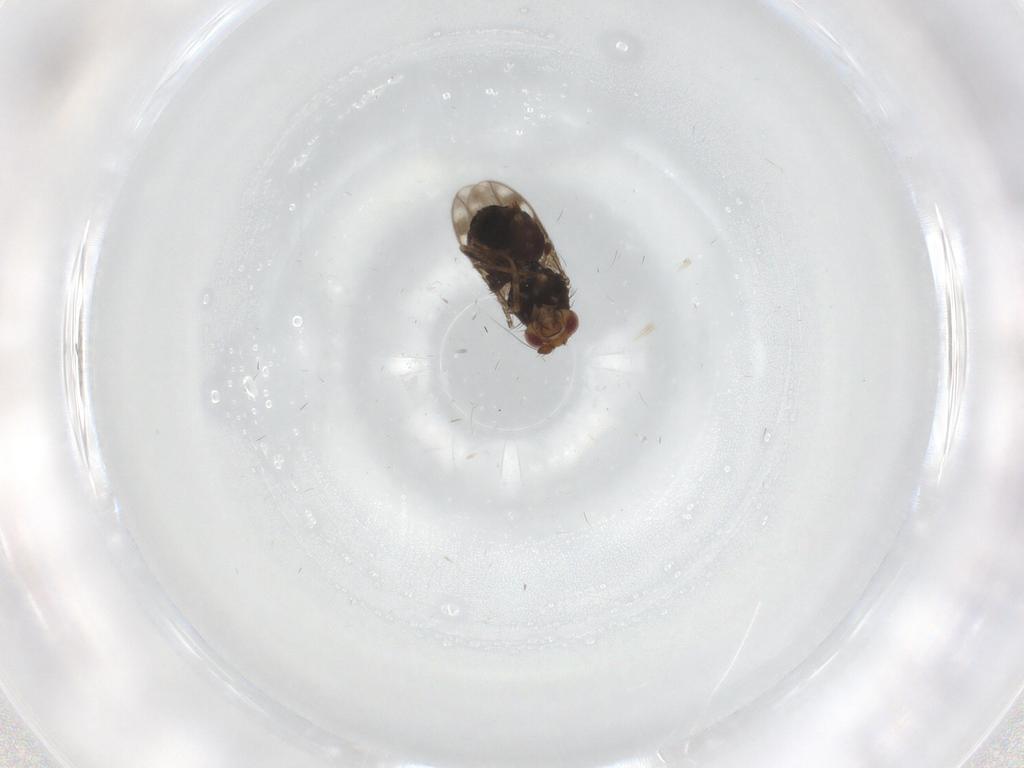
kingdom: Animalia
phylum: Arthropoda
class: Insecta
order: Diptera
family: Sphaeroceridae
